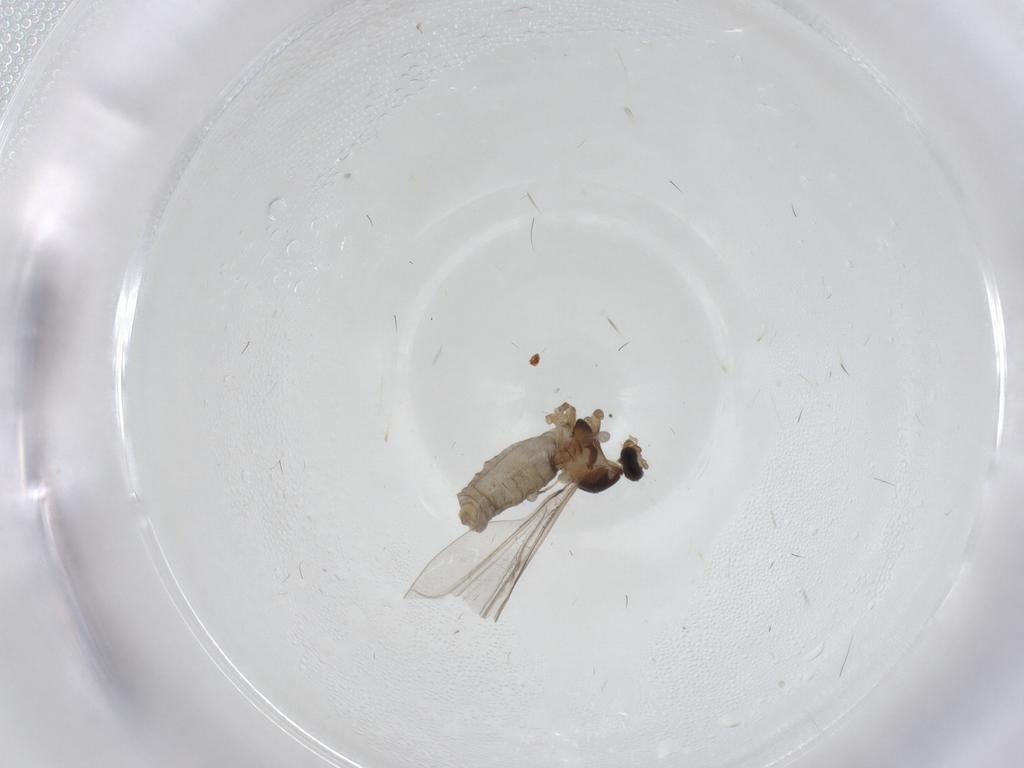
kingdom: Animalia
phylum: Arthropoda
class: Insecta
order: Diptera
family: Cecidomyiidae
